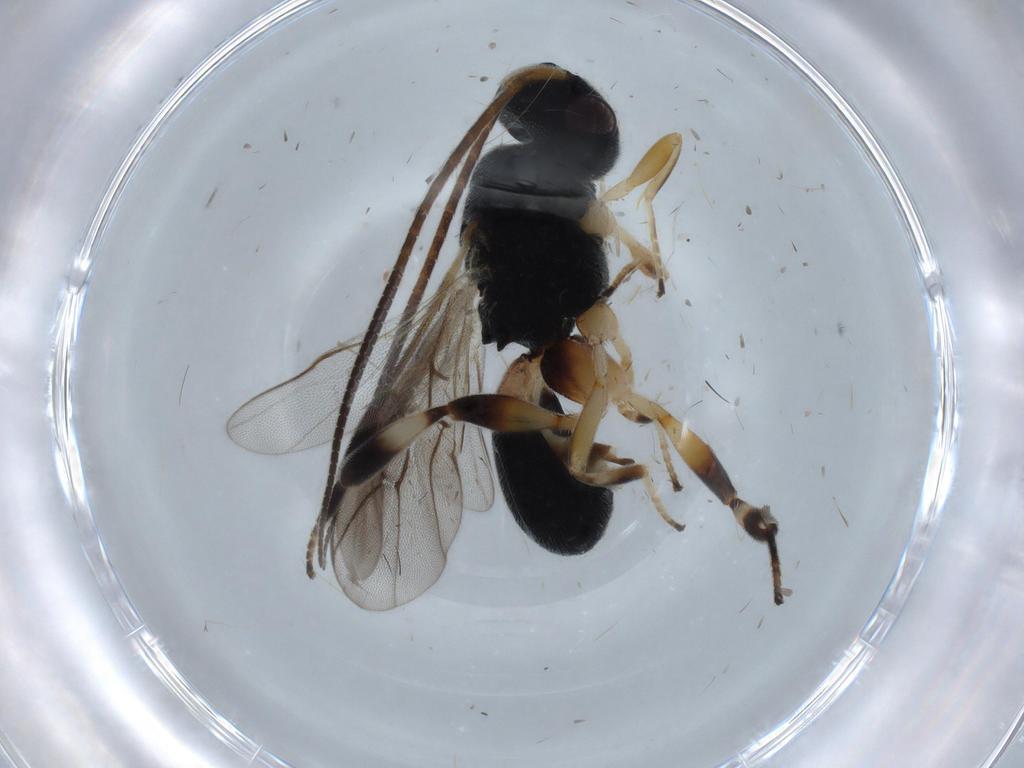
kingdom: Animalia
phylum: Arthropoda
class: Insecta
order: Hymenoptera
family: Braconidae
